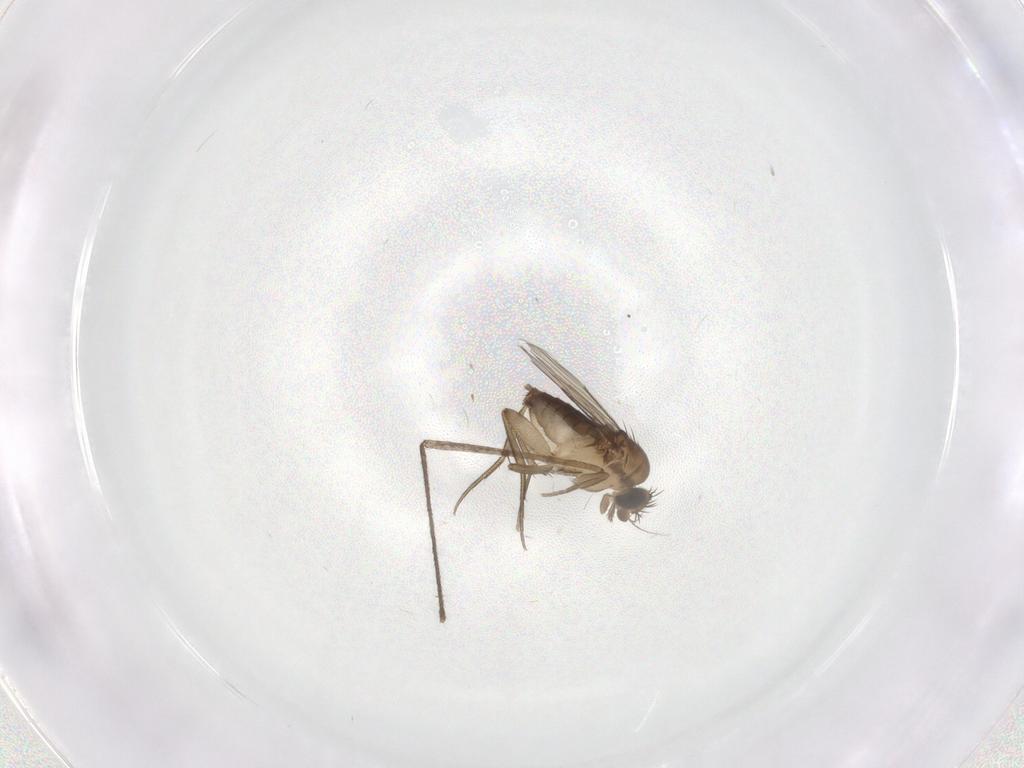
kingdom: Animalia
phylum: Arthropoda
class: Insecta
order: Diptera
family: Phoridae
